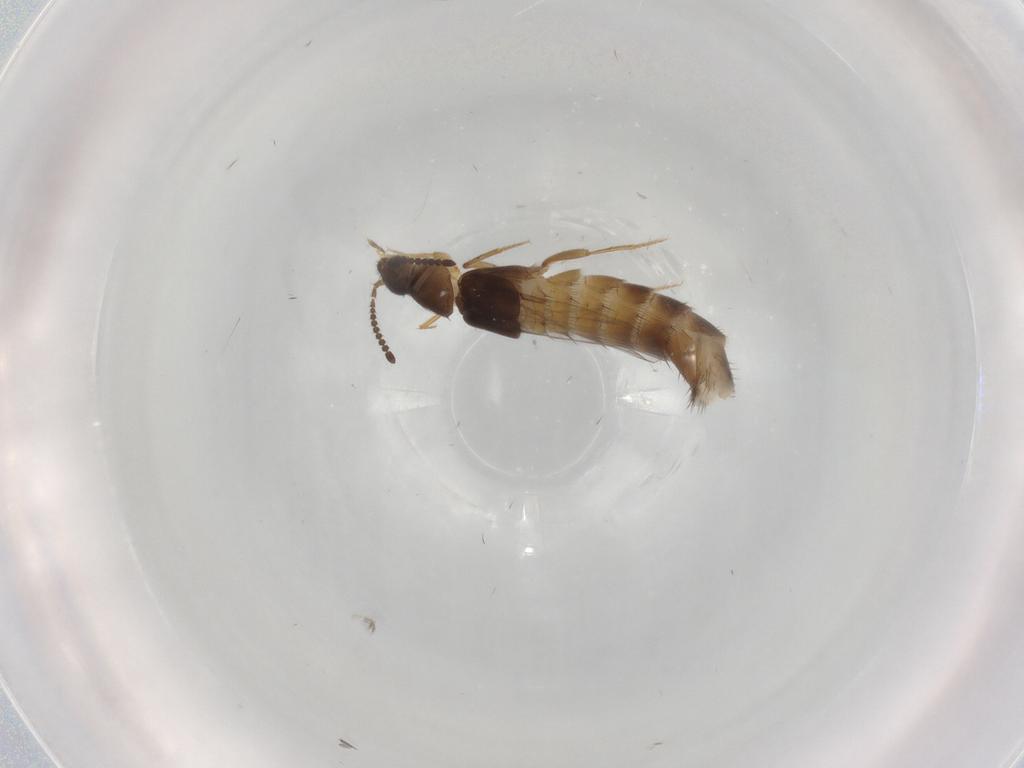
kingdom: Animalia
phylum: Arthropoda
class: Insecta
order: Coleoptera
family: Staphylinidae
